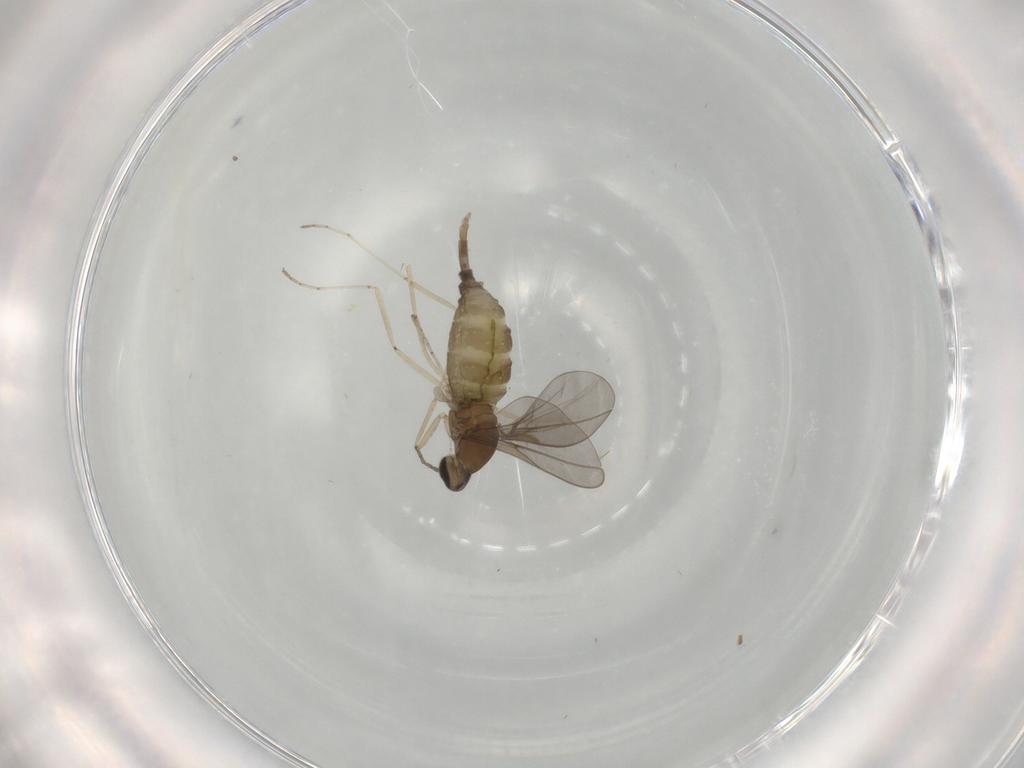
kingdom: Animalia
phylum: Arthropoda
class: Insecta
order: Diptera
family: Cecidomyiidae
